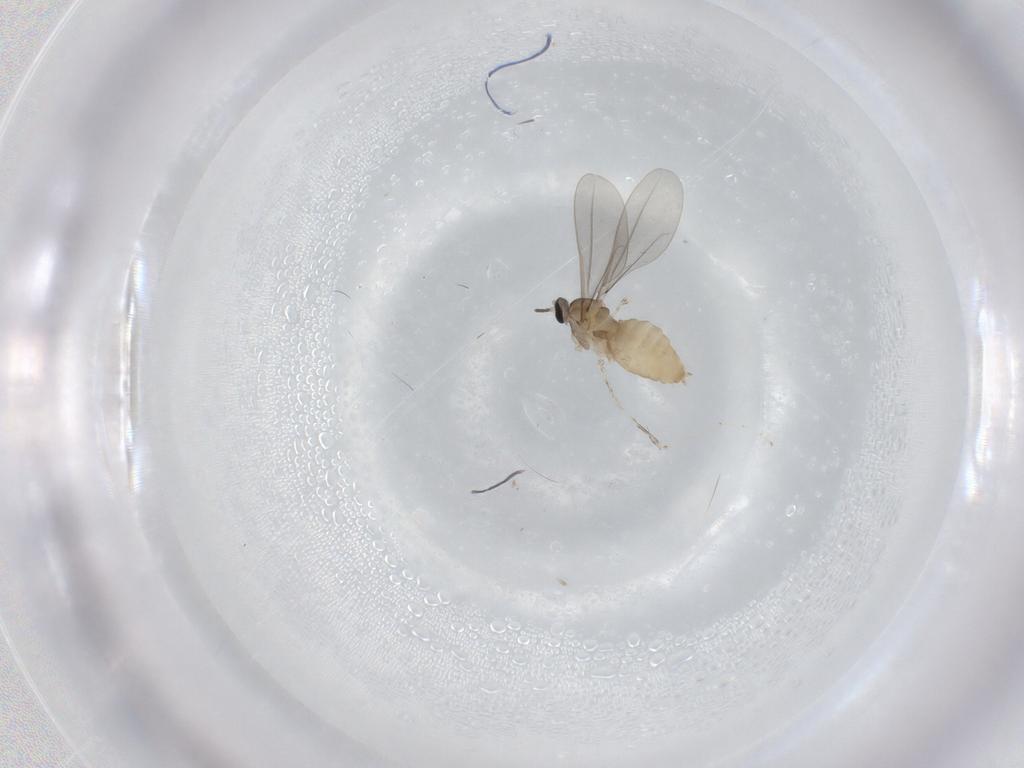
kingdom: Animalia
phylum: Arthropoda
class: Insecta
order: Diptera
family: Cecidomyiidae
